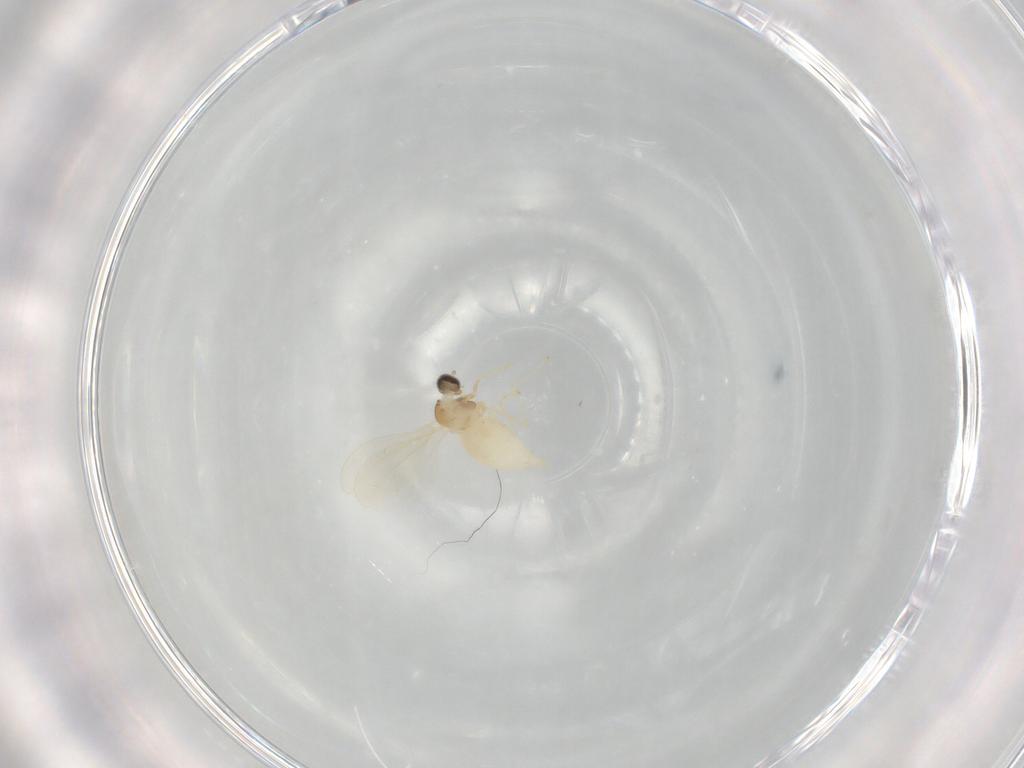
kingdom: Animalia
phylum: Arthropoda
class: Insecta
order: Diptera
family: Cecidomyiidae
